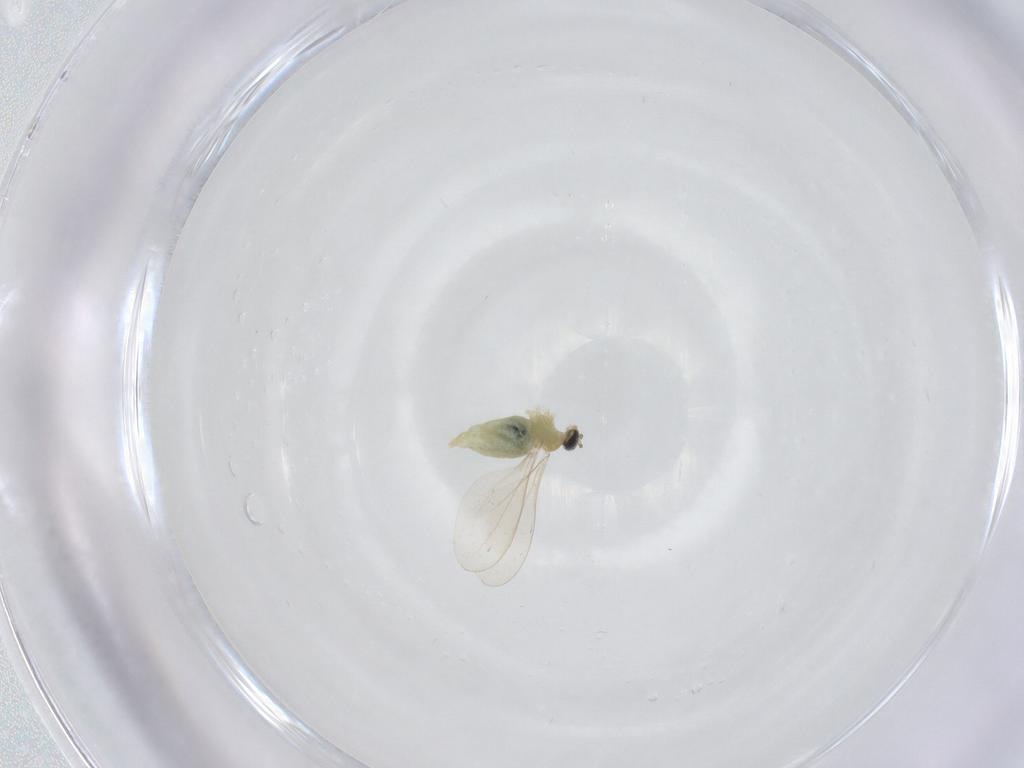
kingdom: Animalia
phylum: Arthropoda
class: Insecta
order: Diptera
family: Cecidomyiidae
